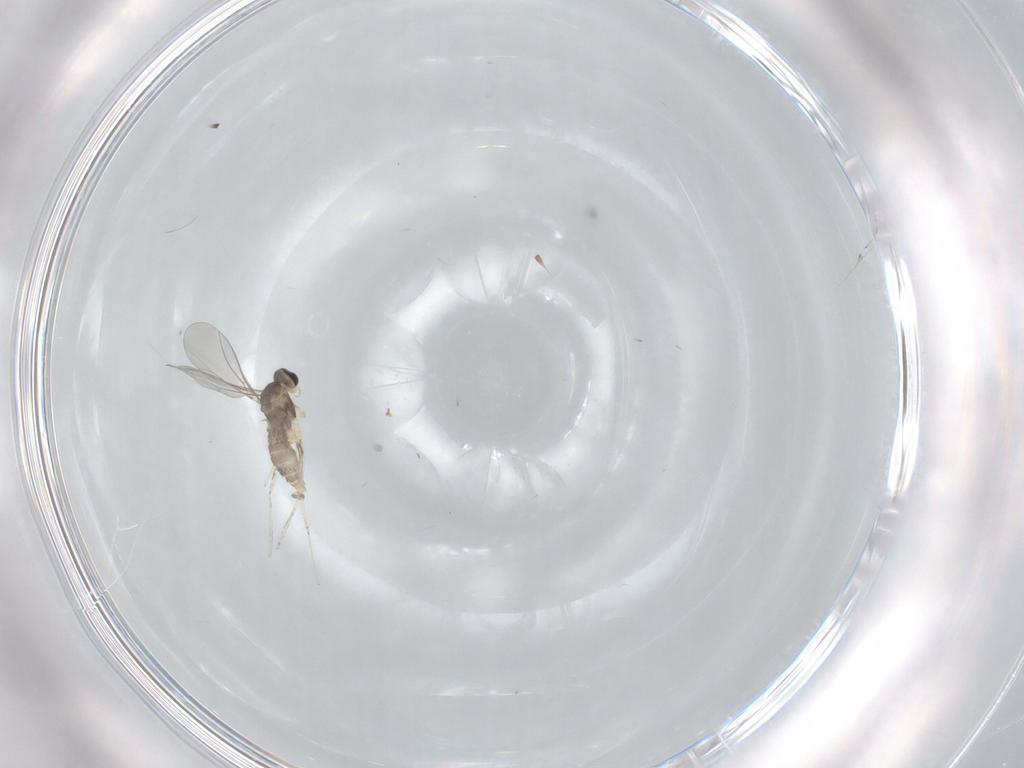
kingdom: Animalia
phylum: Arthropoda
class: Insecta
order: Diptera
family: Cecidomyiidae
